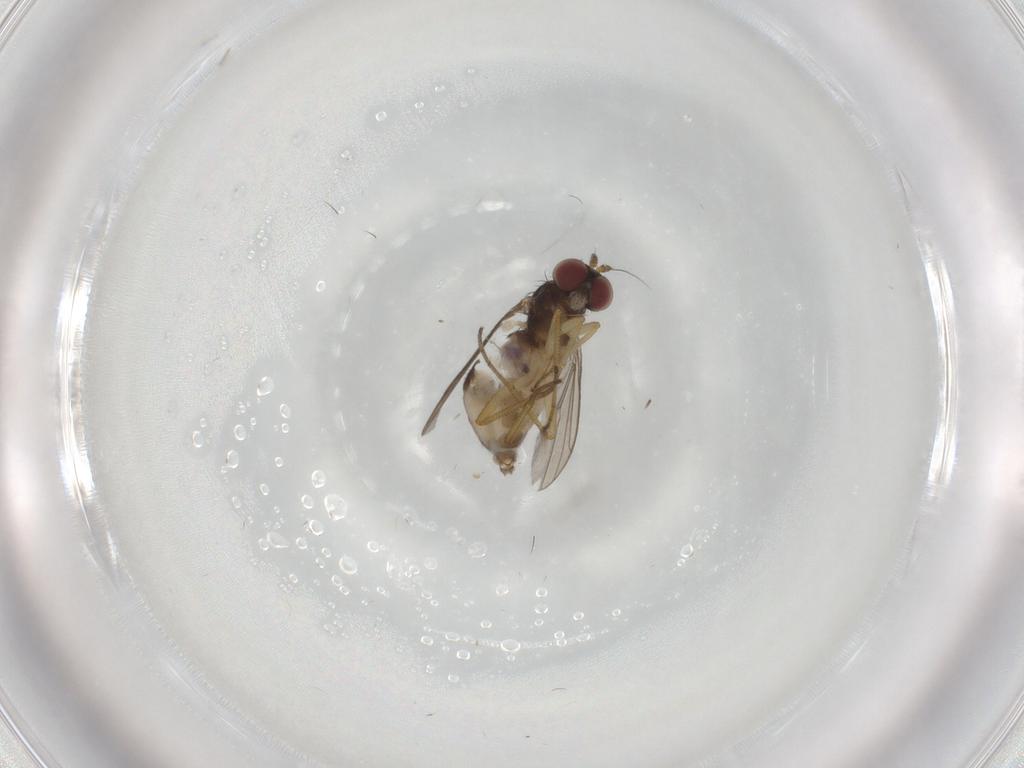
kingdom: Animalia
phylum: Arthropoda
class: Insecta
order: Diptera
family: Dolichopodidae
